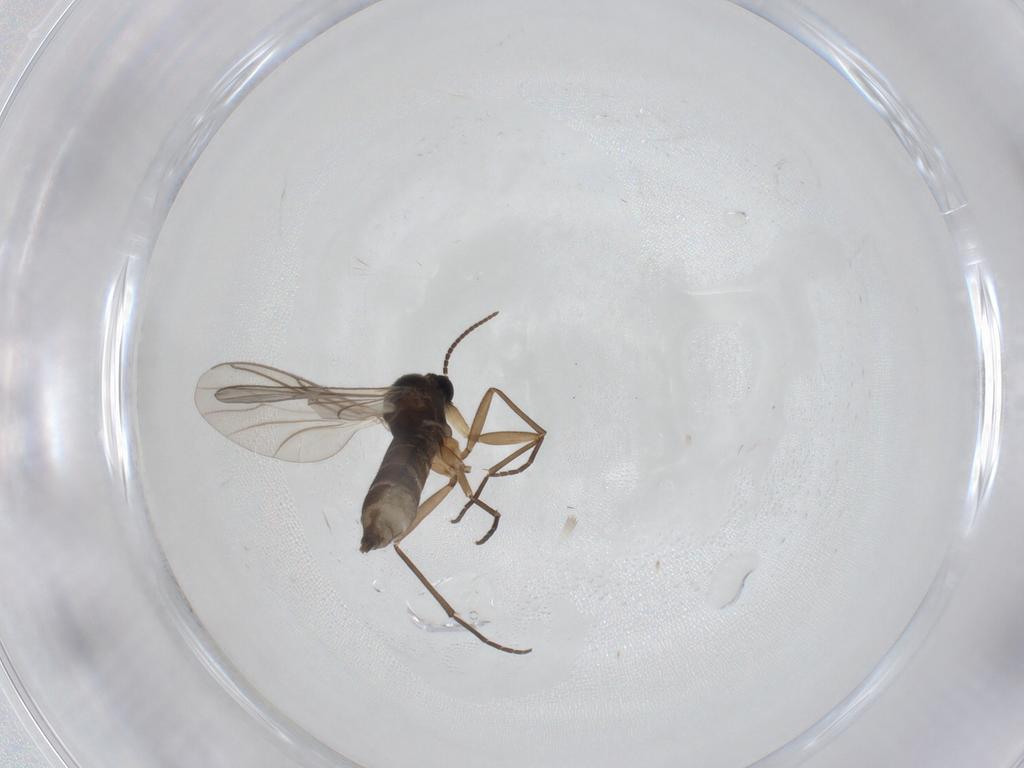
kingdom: Animalia
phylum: Arthropoda
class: Insecta
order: Diptera
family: Sciaridae
